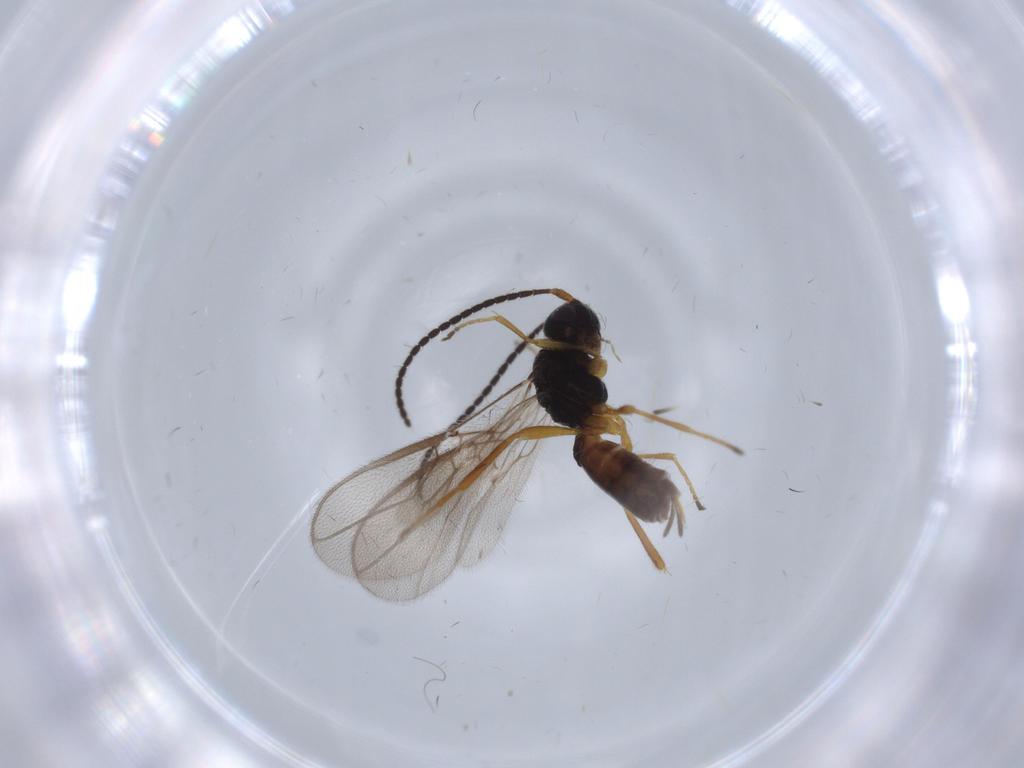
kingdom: Animalia
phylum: Arthropoda
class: Insecta
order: Hymenoptera
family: Braconidae
